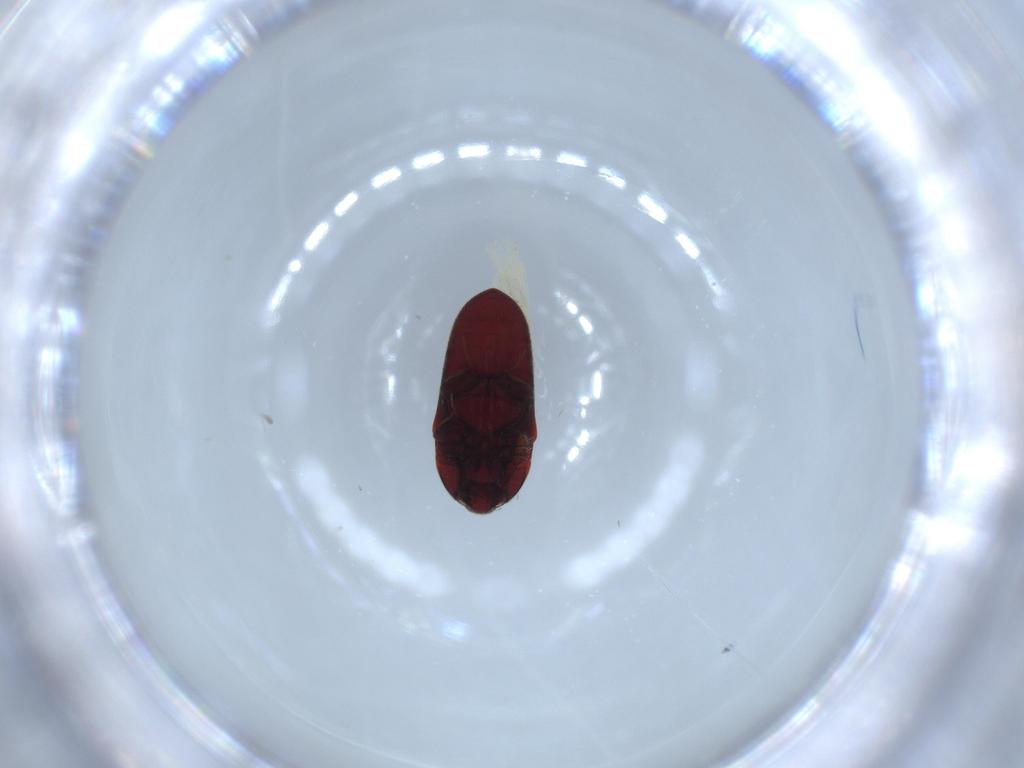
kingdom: Animalia
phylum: Arthropoda
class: Insecta
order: Coleoptera
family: Throscidae
